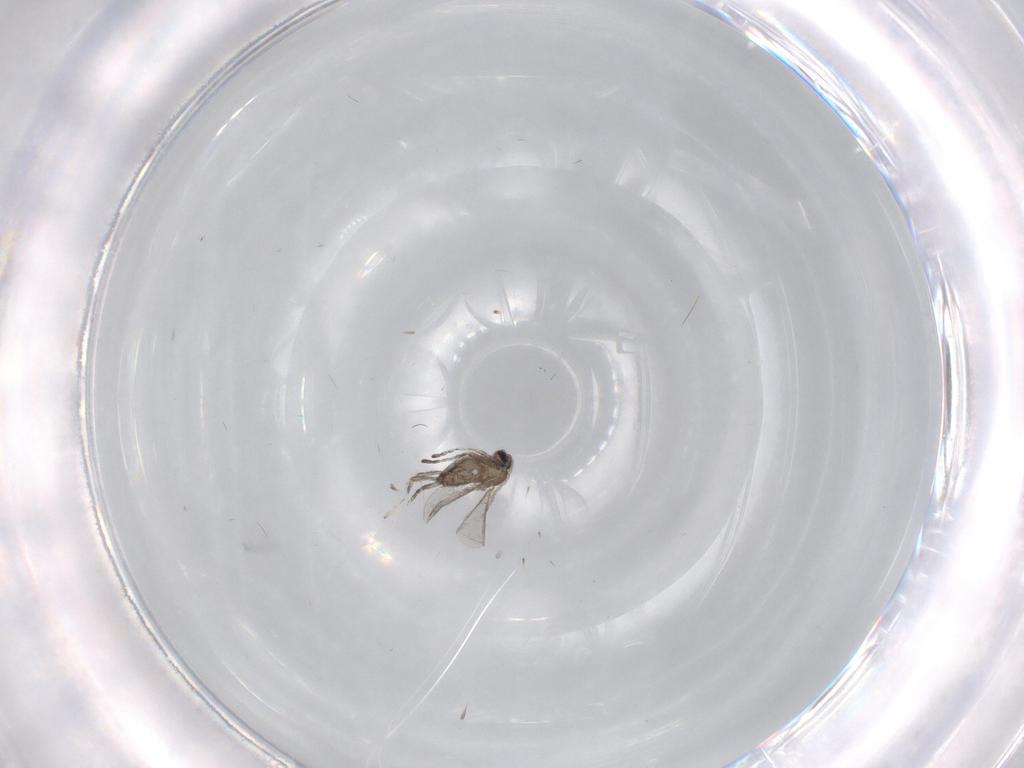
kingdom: Animalia
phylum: Arthropoda
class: Insecta
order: Diptera
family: Cecidomyiidae
